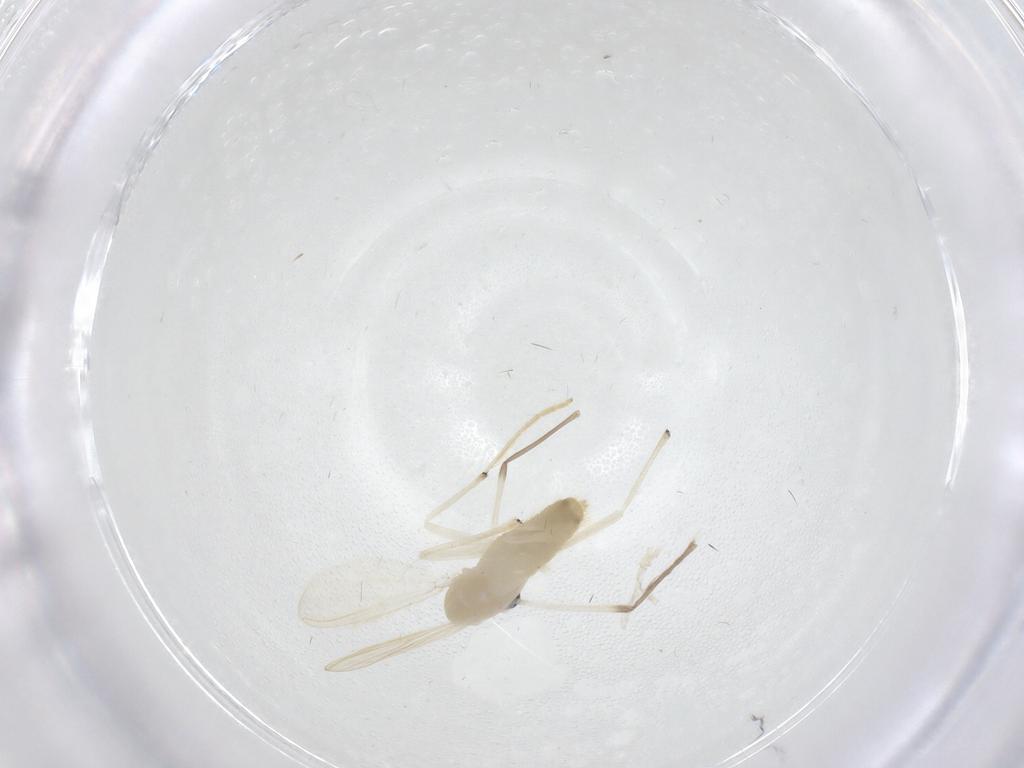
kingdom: Animalia
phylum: Arthropoda
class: Insecta
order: Diptera
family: Chironomidae
